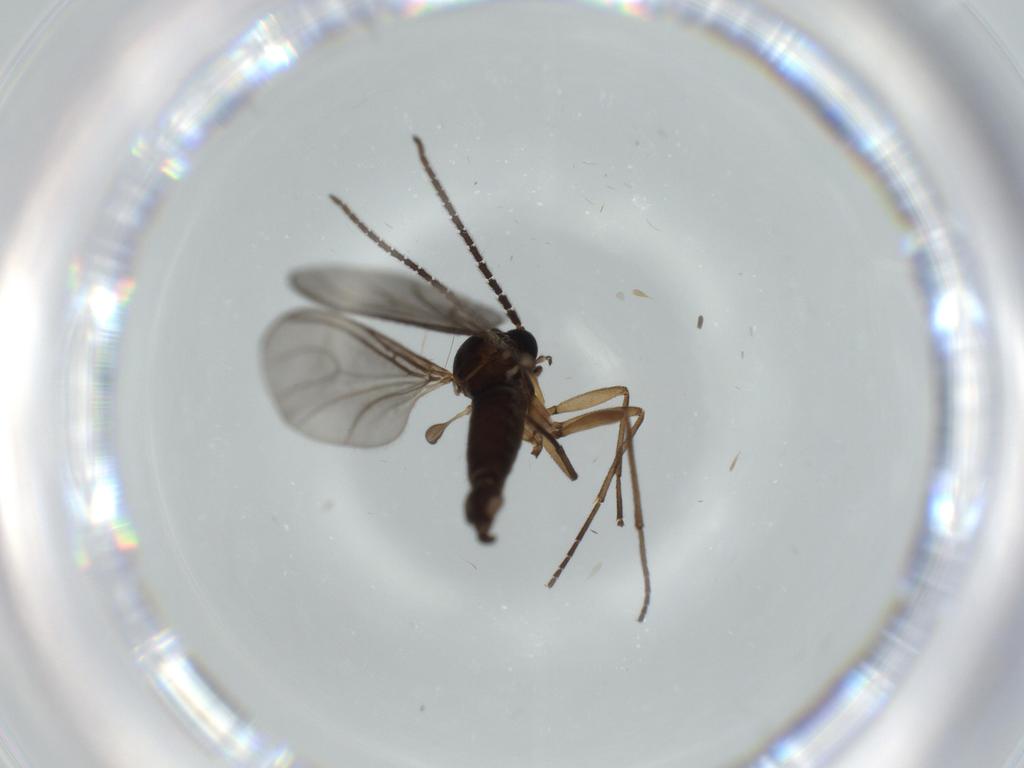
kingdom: Animalia
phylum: Arthropoda
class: Insecta
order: Diptera
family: Sciaridae
